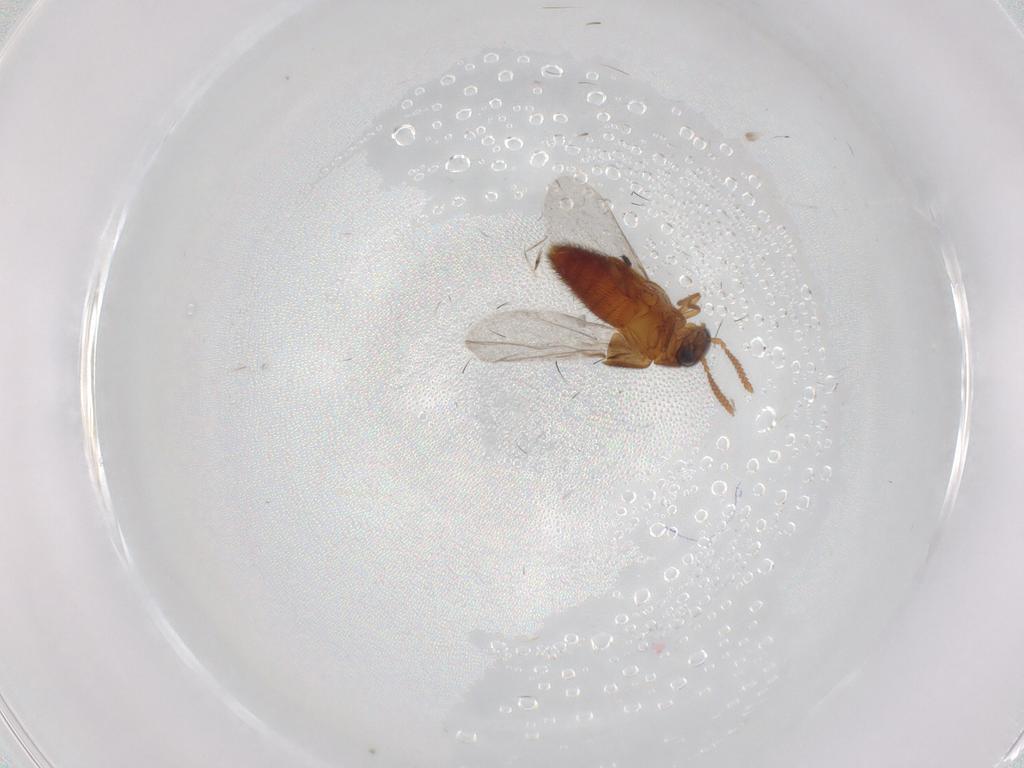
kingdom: Animalia
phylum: Arthropoda
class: Insecta
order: Coleoptera
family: Staphylinidae
